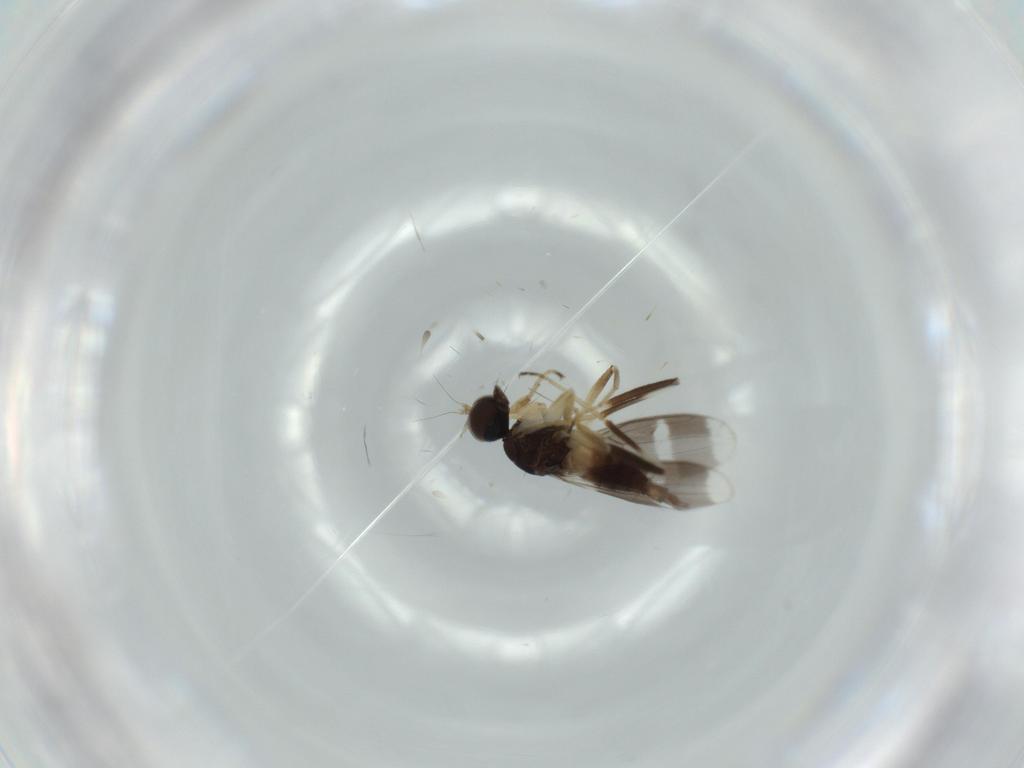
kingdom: Animalia
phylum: Arthropoda
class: Insecta
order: Diptera
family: Hybotidae
